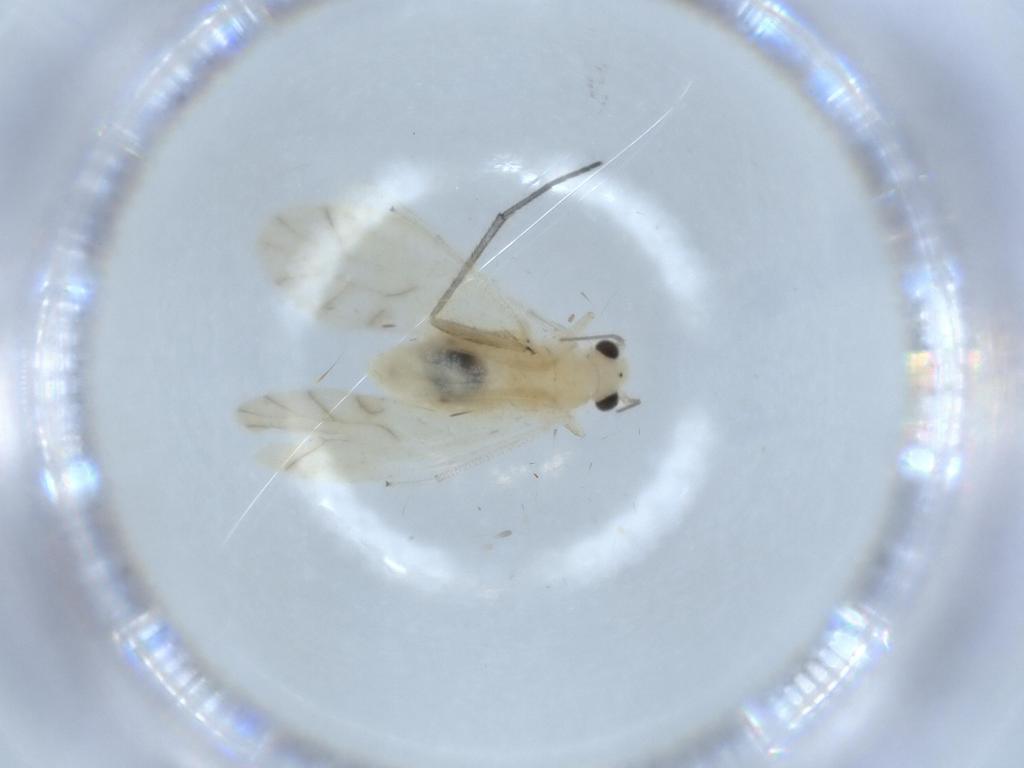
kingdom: Animalia
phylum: Arthropoda
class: Insecta
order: Psocodea
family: Caeciliusidae
